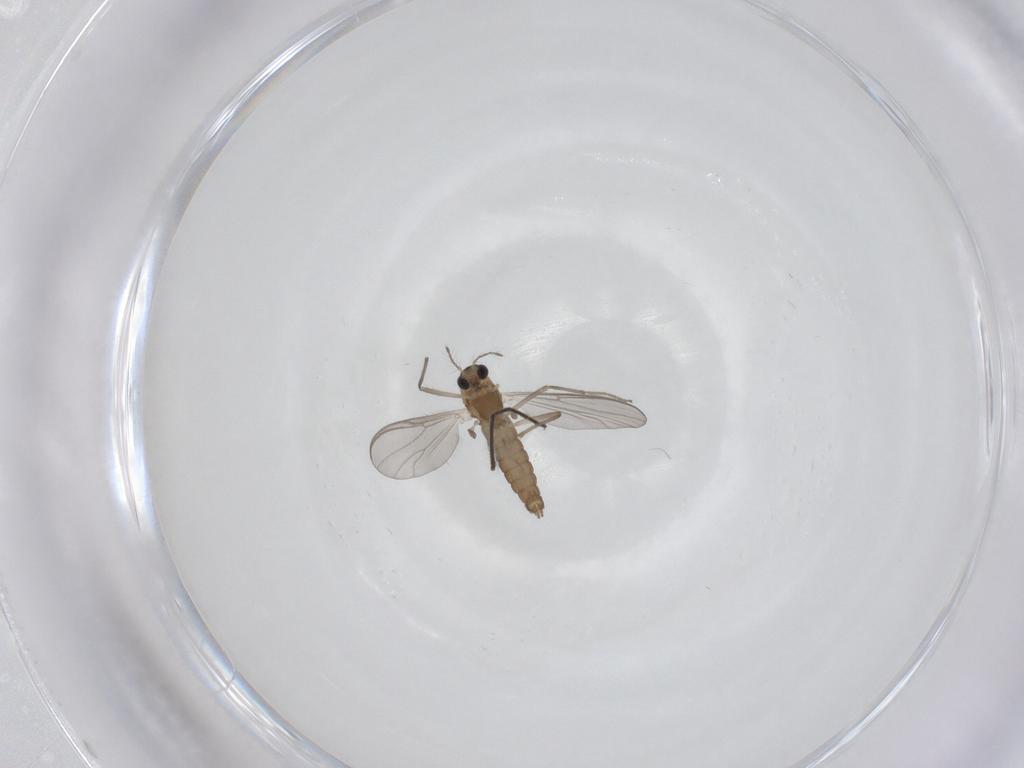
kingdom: Animalia
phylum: Arthropoda
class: Insecta
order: Diptera
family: Chironomidae
